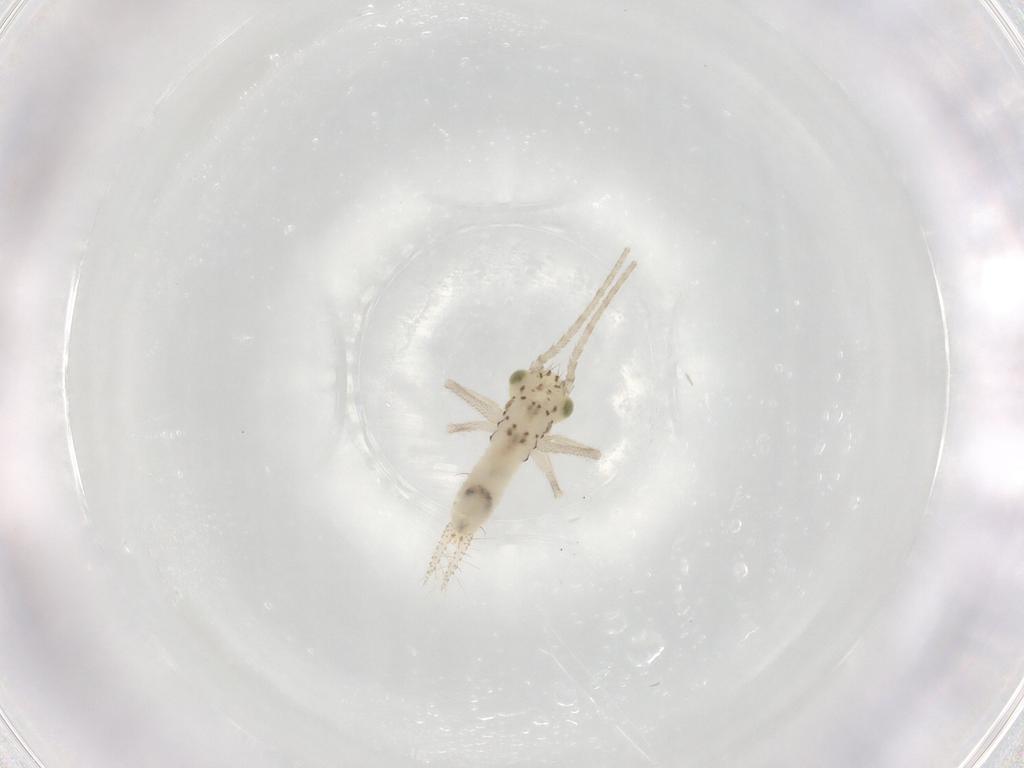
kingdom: Animalia
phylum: Arthropoda
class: Insecta
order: Orthoptera
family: Trigonidiidae
